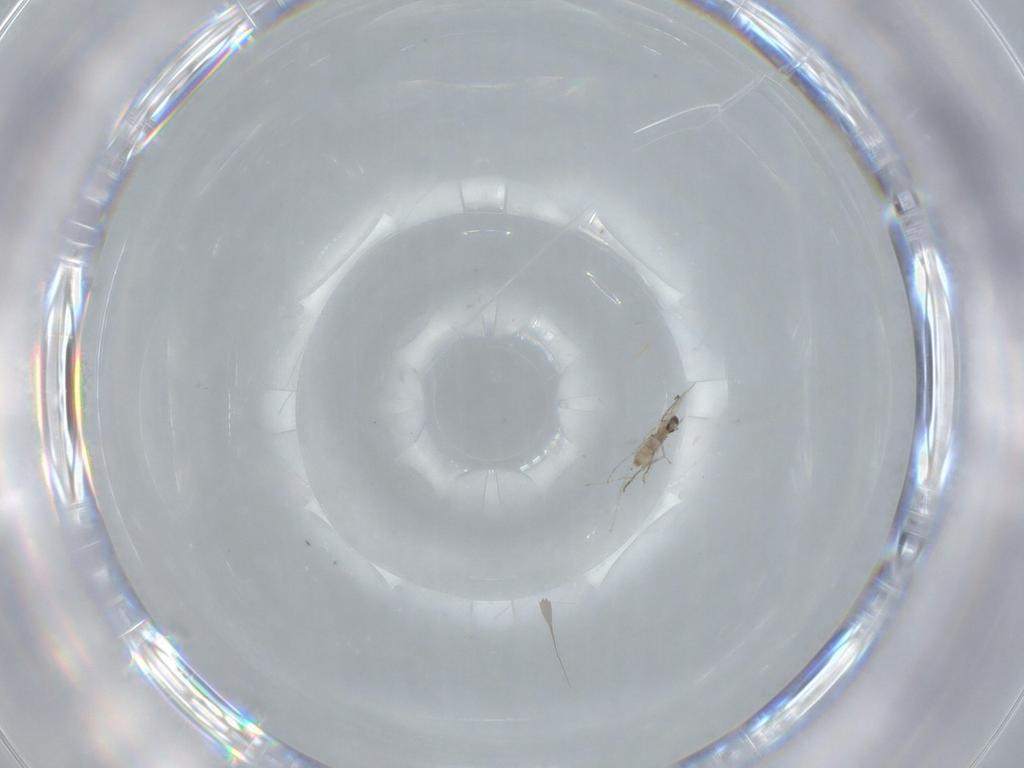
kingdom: Animalia
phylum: Arthropoda
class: Insecta
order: Diptera
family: Cecidomyiidae
